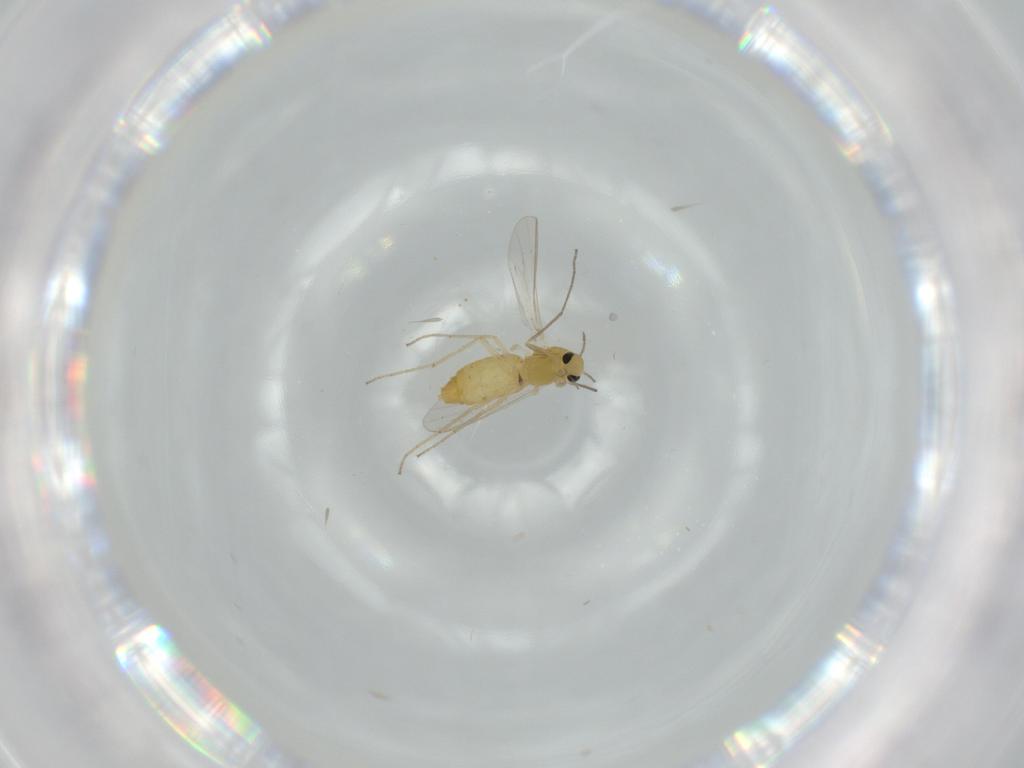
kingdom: Animalia
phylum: Arthropoda
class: Insecta
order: Diptera
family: Chironomidae
